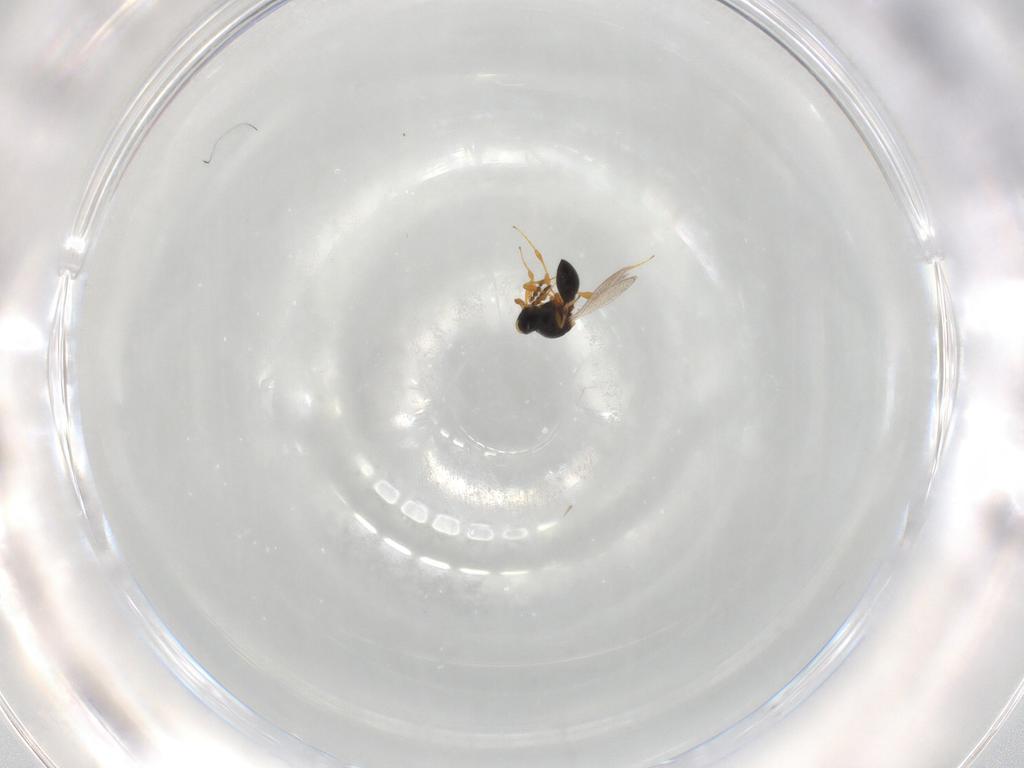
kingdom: Animalia
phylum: Arthropoda
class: Insecta
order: Hymenoptera
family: Platygastridae
